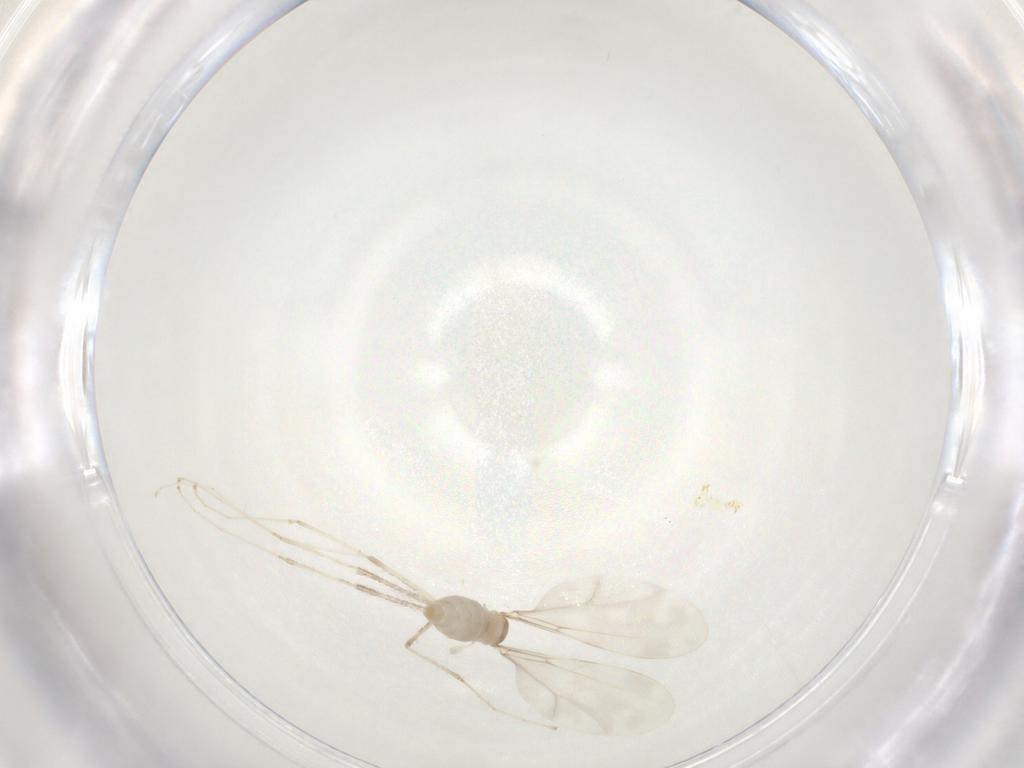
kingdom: Animalia
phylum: Arthropoda
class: Insecta
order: Diptera
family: Cecidomyiidae
